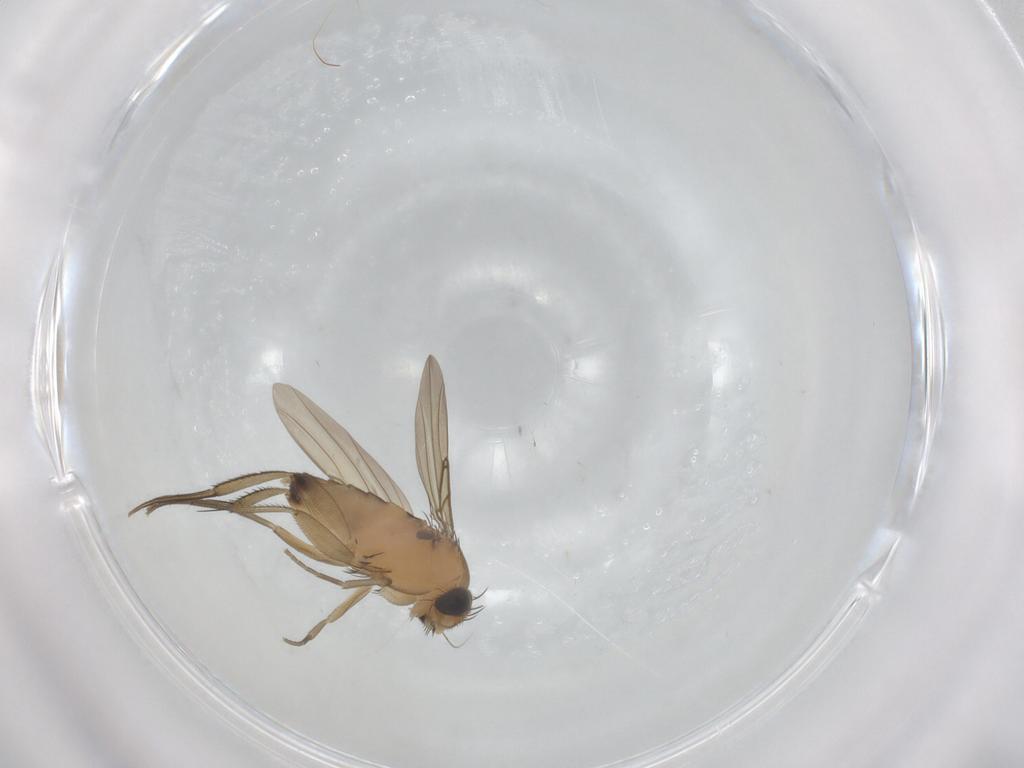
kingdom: Animalia
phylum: Arthropoda
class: Insecta
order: Diptera
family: Phoridae
